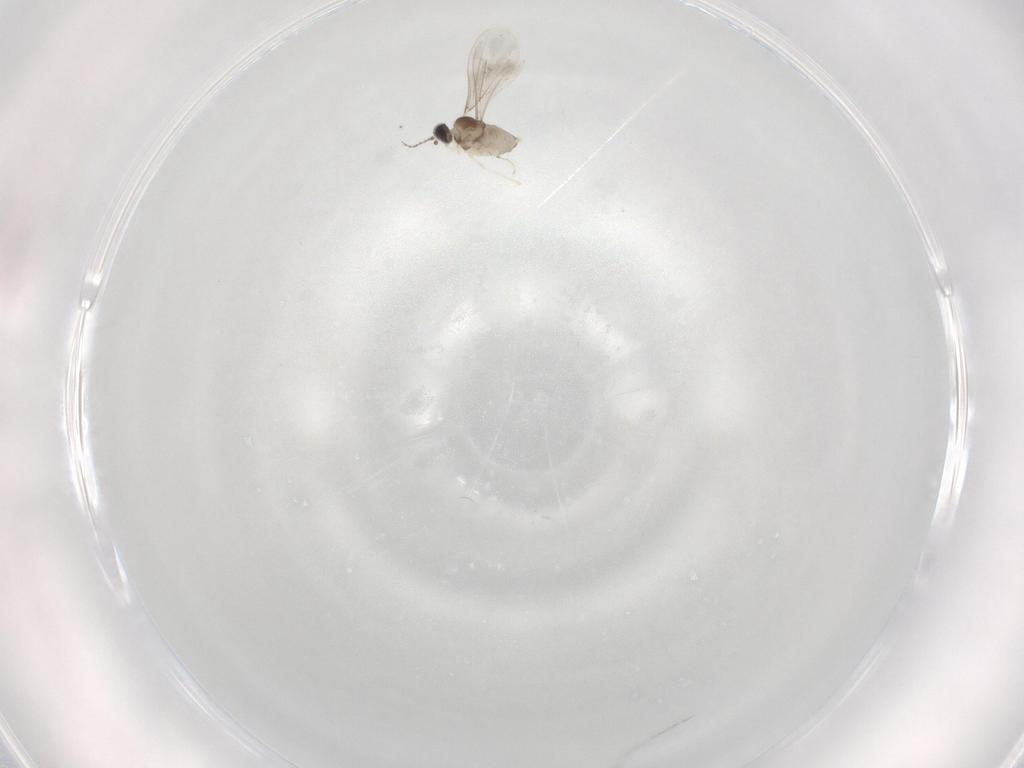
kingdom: Animalia
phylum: Arthropoda
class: Insecta
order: Diptera
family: Cecidomyiidae
